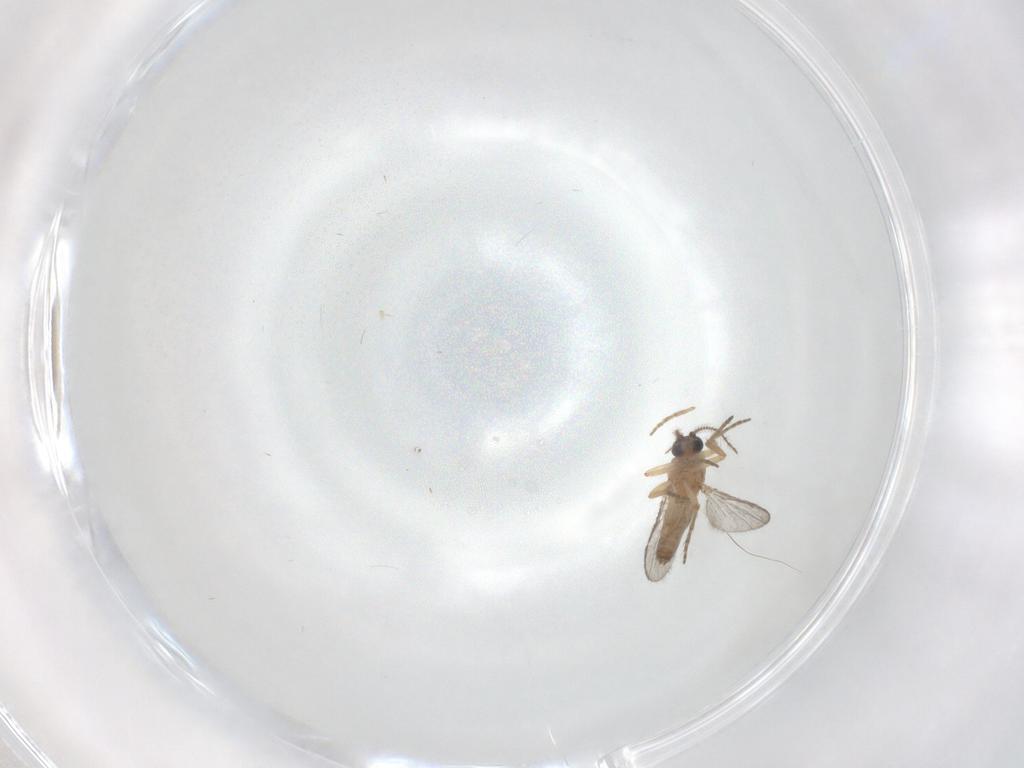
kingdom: Animalia
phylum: Arthropoda
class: Insecta
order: Diptera
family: Ceratopogonidae
